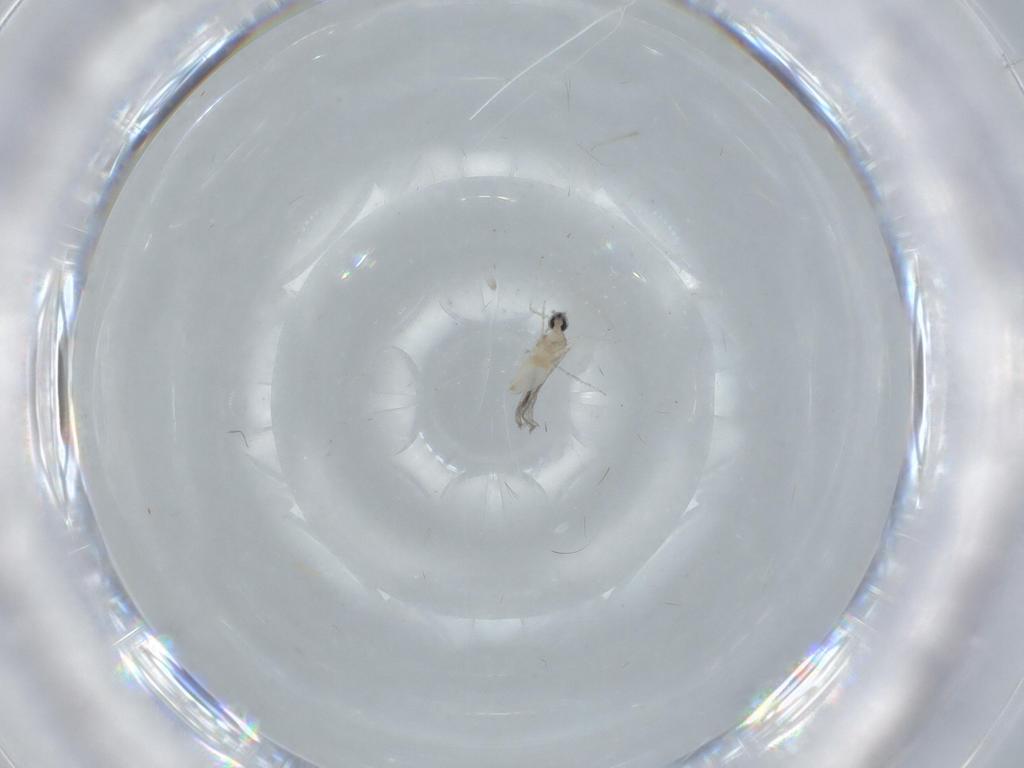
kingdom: Animalia
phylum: Arthropoda
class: Insecta
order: Diptera
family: Cecidomyiidae
